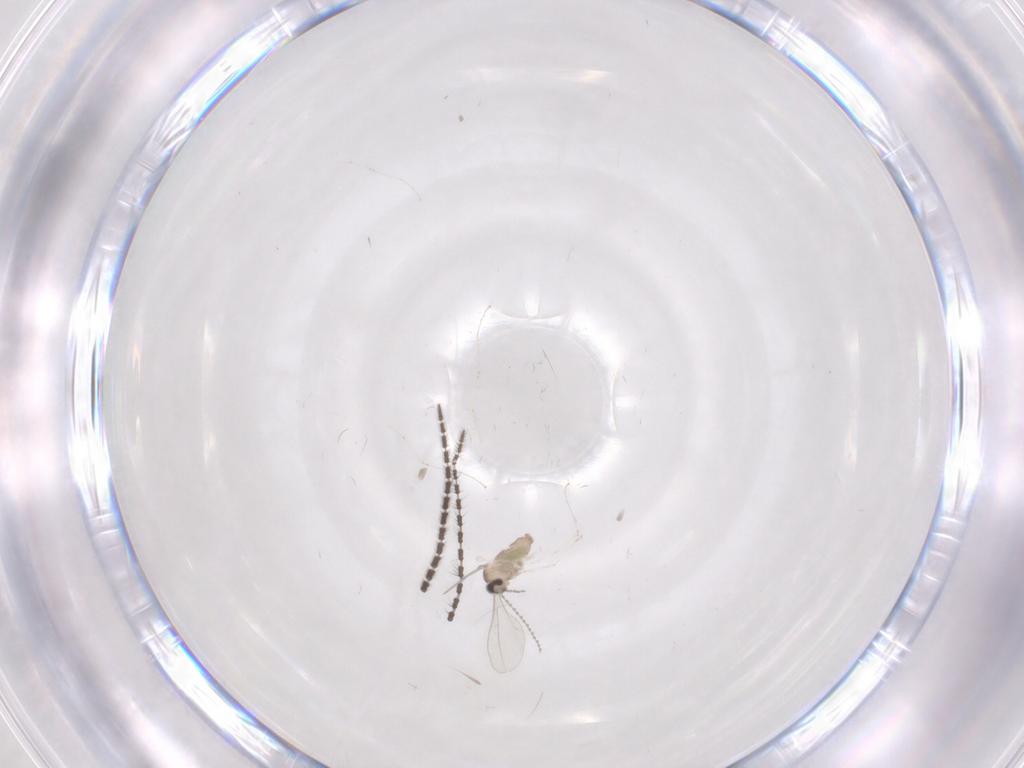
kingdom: Animalia
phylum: Arthropoda
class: Insecta
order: Diptera
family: Cecidomyiidae
